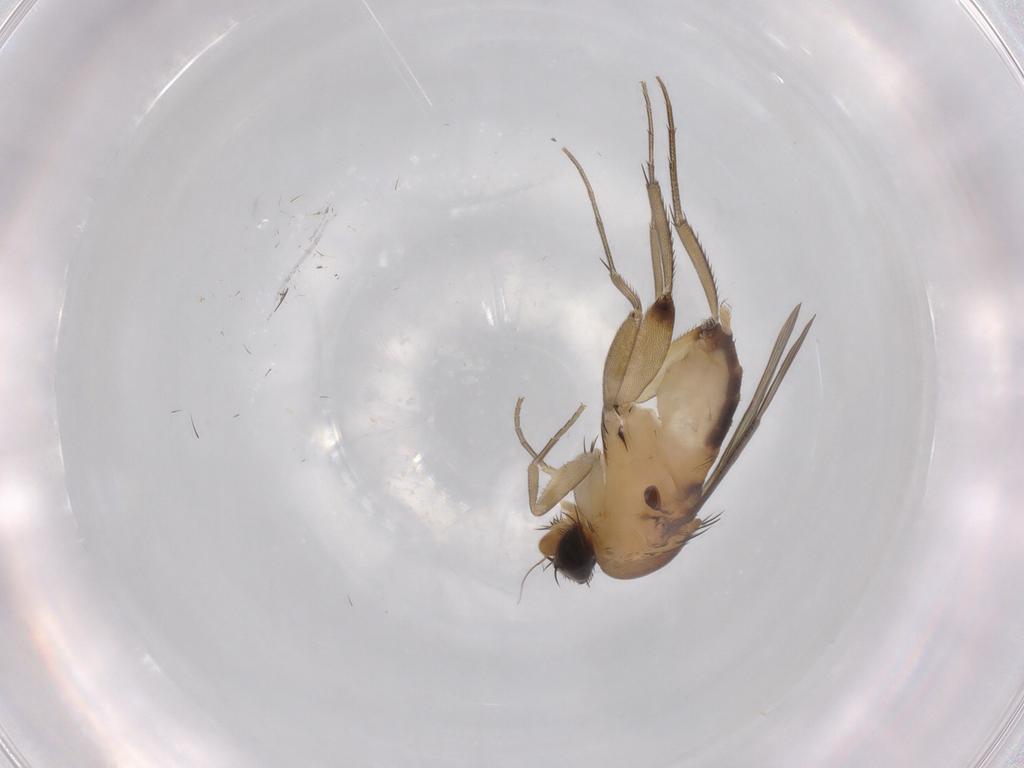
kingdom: Animalia
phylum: Arthropoda
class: Insecta
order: Diptera
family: Phoridae
